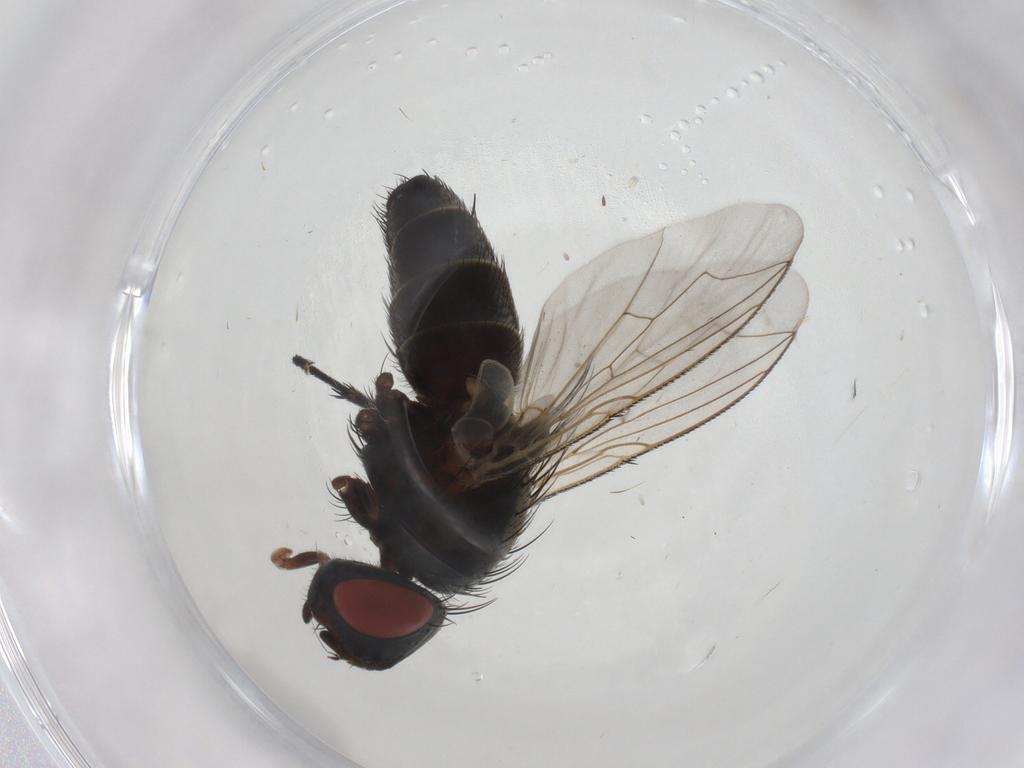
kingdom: Animalia
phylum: Arthropoda
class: Insecta
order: Diptera
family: Sarcophagidae
